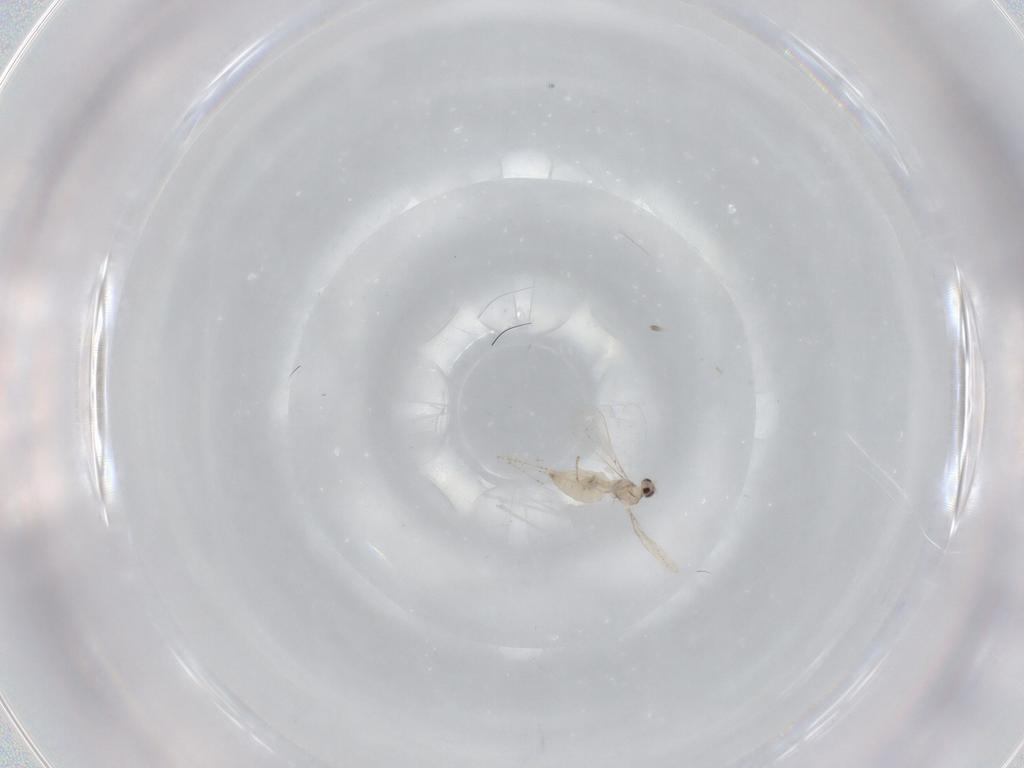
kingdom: Animalia
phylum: Arthropoda
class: Insecta
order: Diptera
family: Cecidomyiidae
